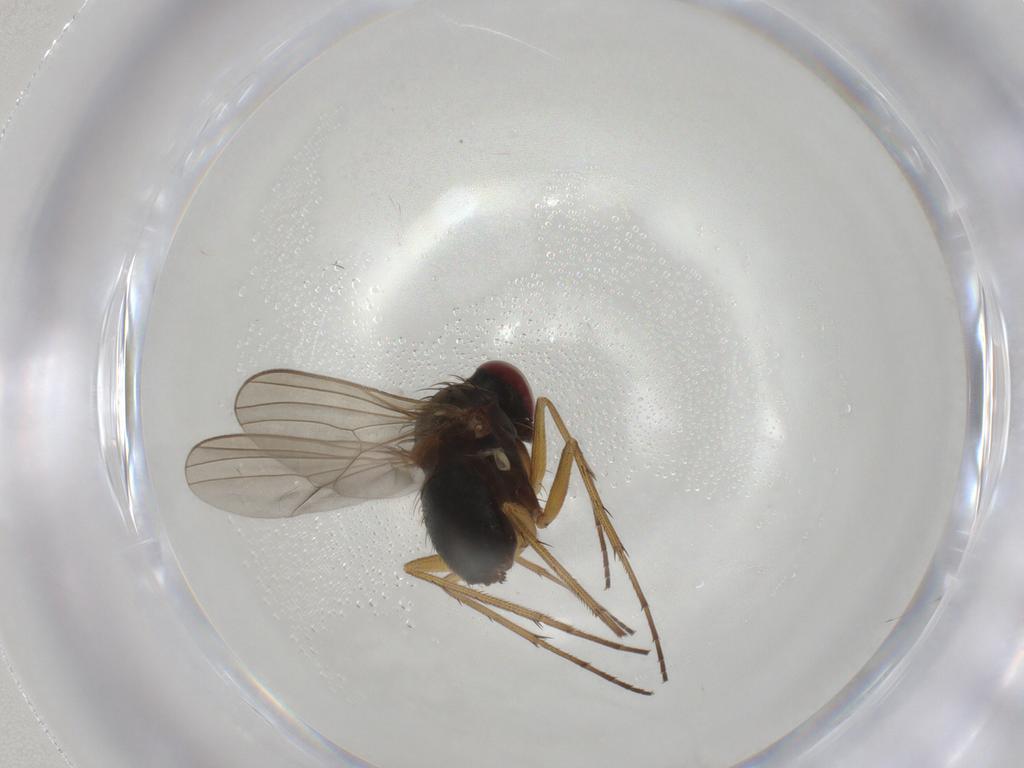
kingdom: Animalia
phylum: Arthropoda
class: Insecta
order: Diptera
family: Dolichopodidae
